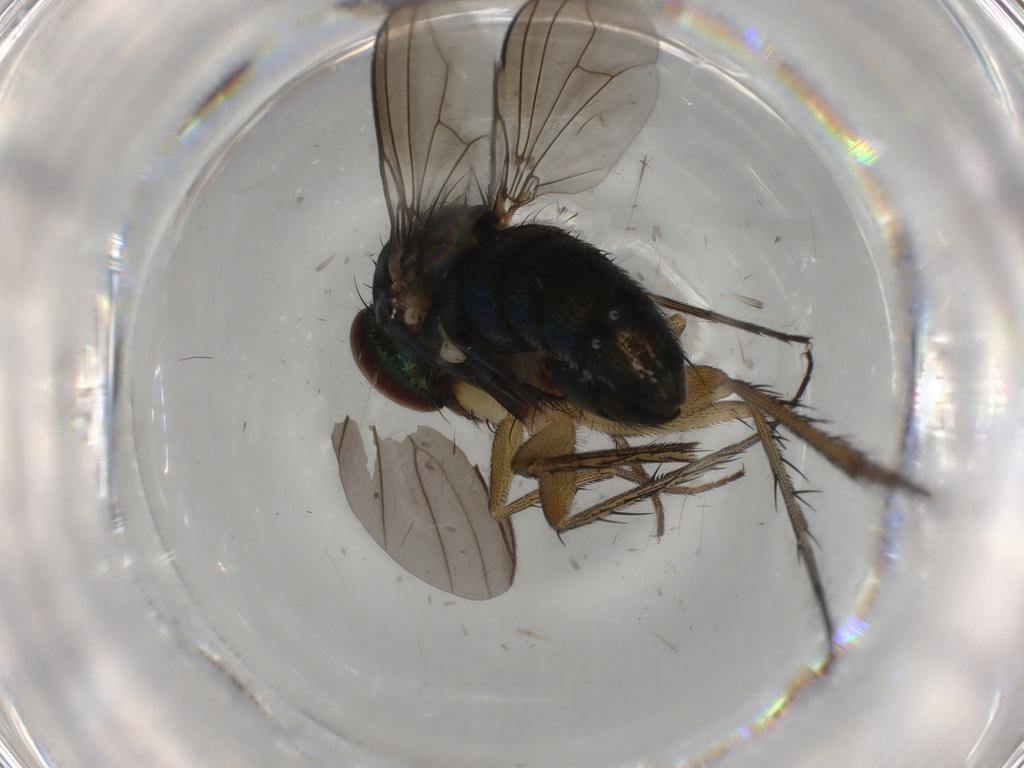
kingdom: Animalia
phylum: Arthropoda
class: Insecta
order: Diptera
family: Dolichopodidae
